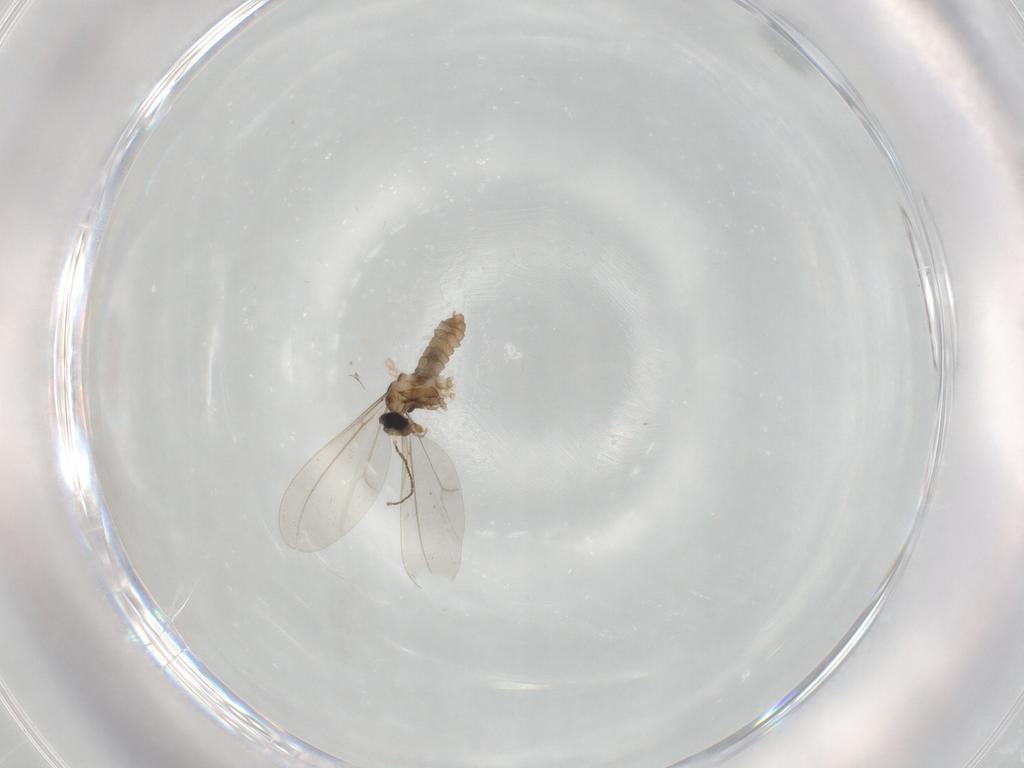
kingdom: Animalia
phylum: Arthropoda
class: Insecta
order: Diptera
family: Cecidomyiidae
